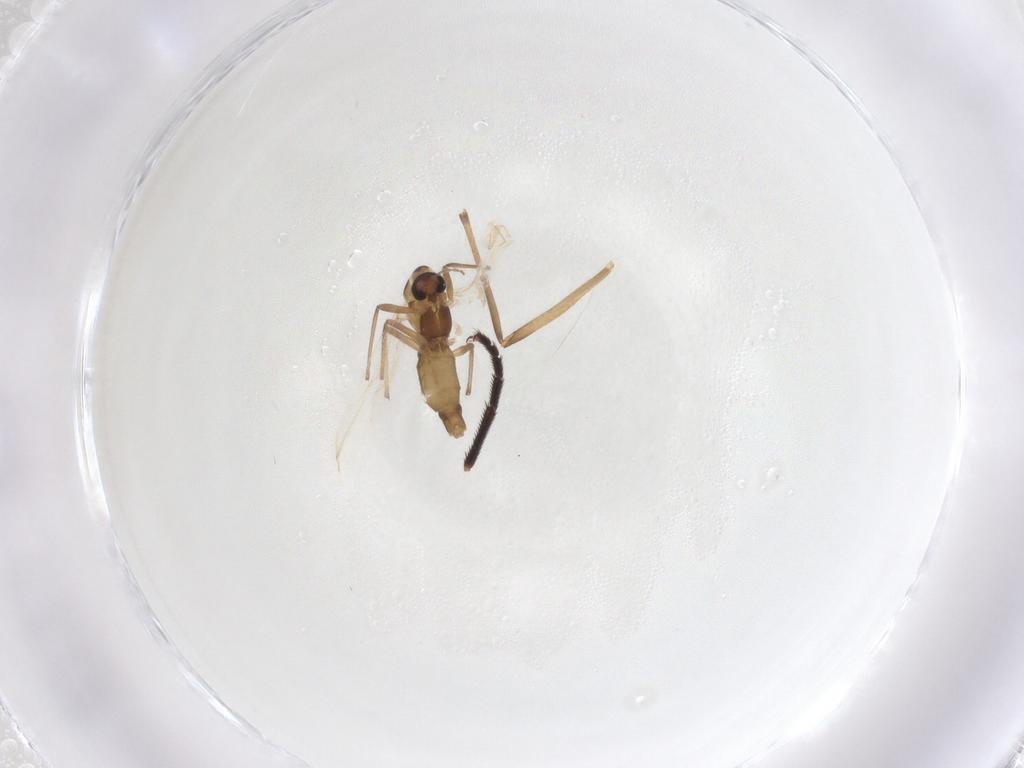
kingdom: Animalia
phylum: Arthropoda
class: Insecta
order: Diptera
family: Chironomidae
